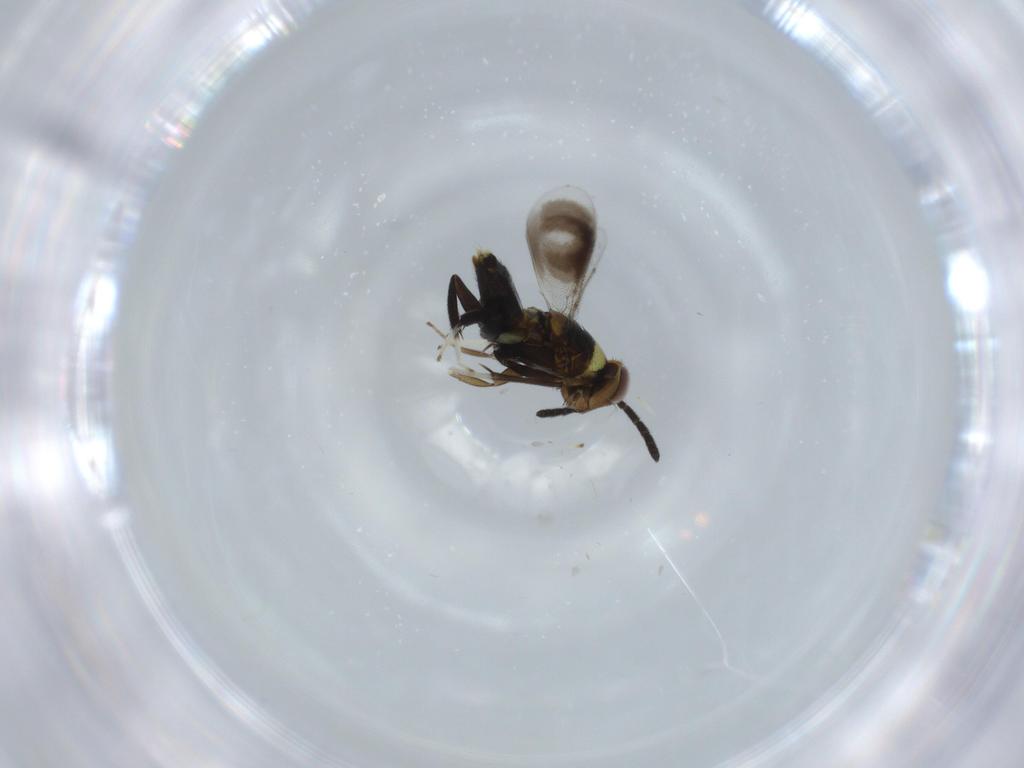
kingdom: Animalia
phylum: Arthropoda
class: Insecta
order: Hymenoptera
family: Aphelinidae
